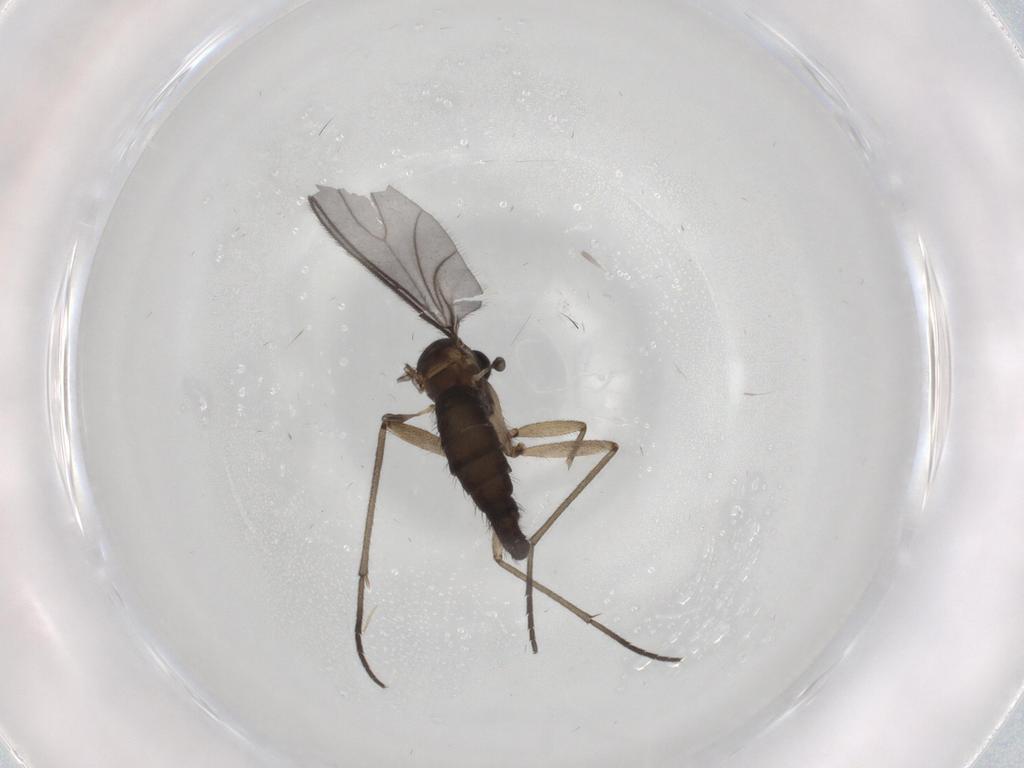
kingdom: Animalia
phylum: Arthropoda
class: Insecta
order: Diptera
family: Sciaridae
